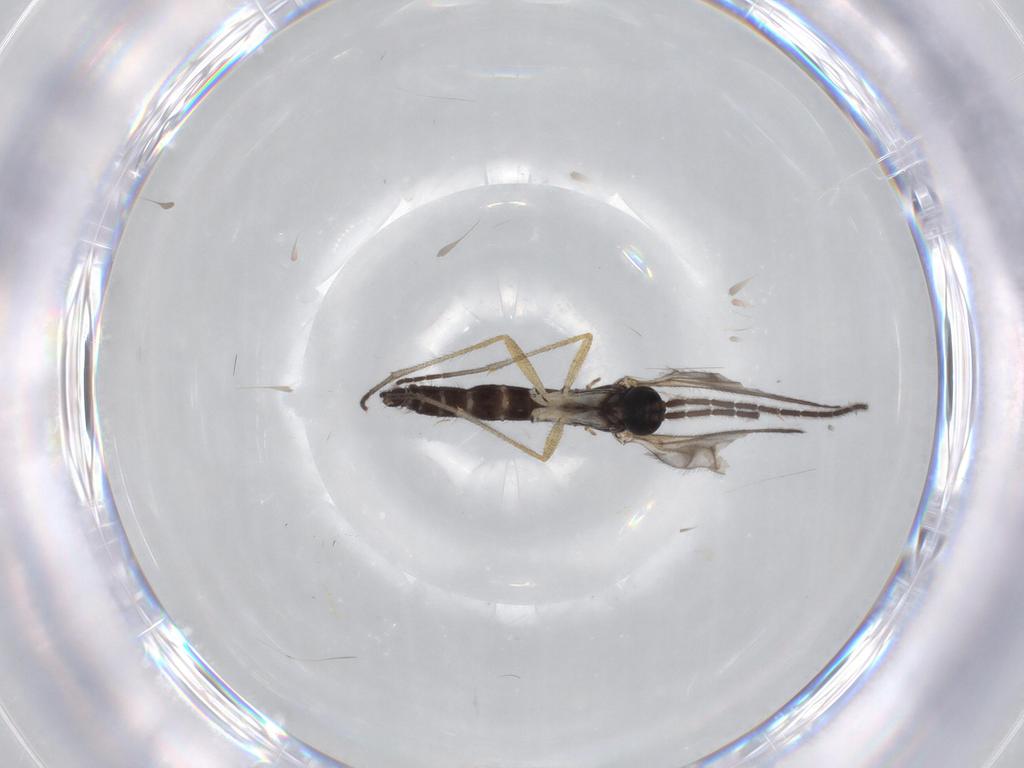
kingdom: Animalia
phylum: Arthropoda
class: Insecta
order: Diptera
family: Sciaridae
